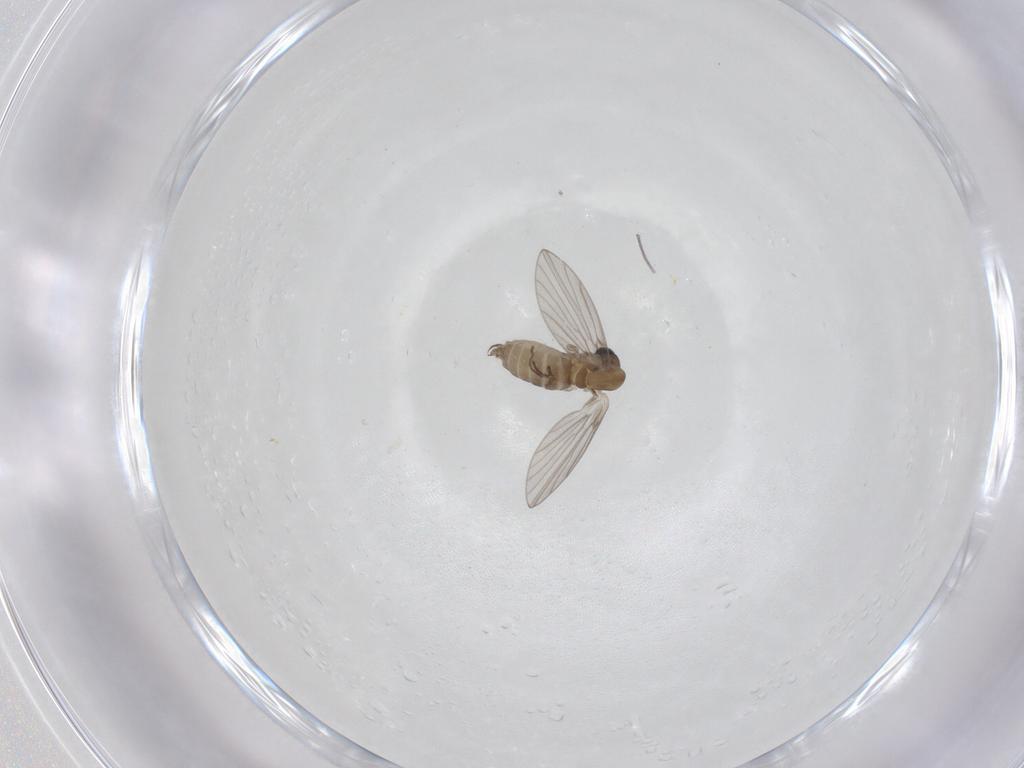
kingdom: Animalia
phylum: Arthropoda
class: Insecta
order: Diptera
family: Psychodidae
